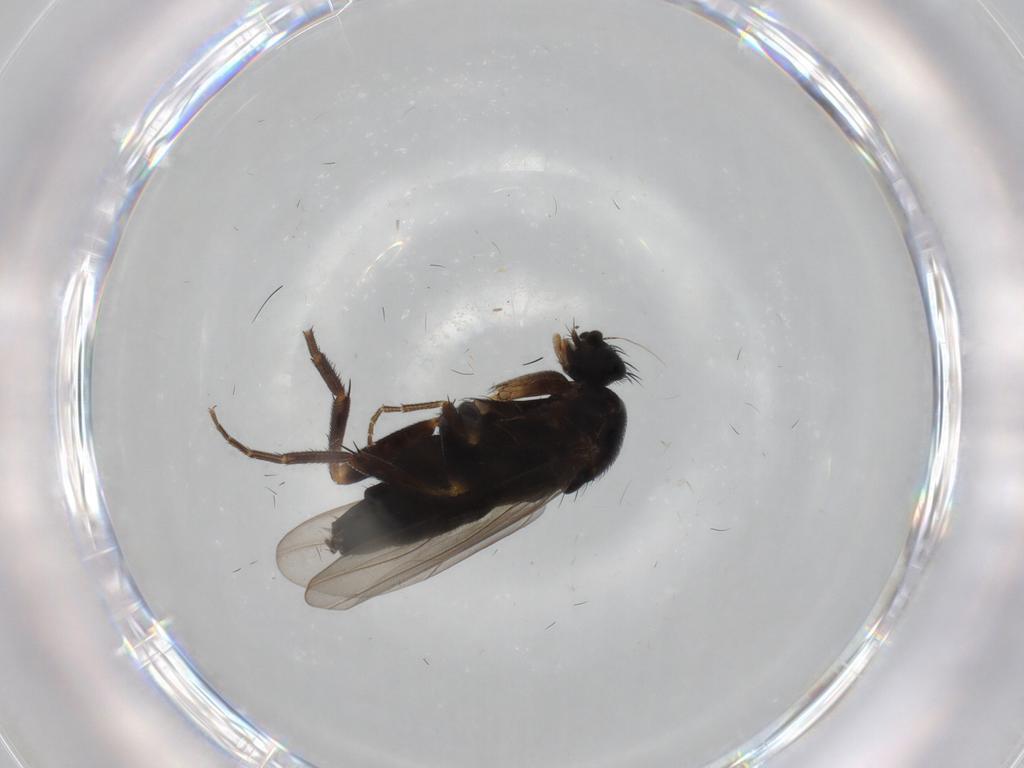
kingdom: Animalia
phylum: Arthropoda
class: Insecta
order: Diptera
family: Phoridae
